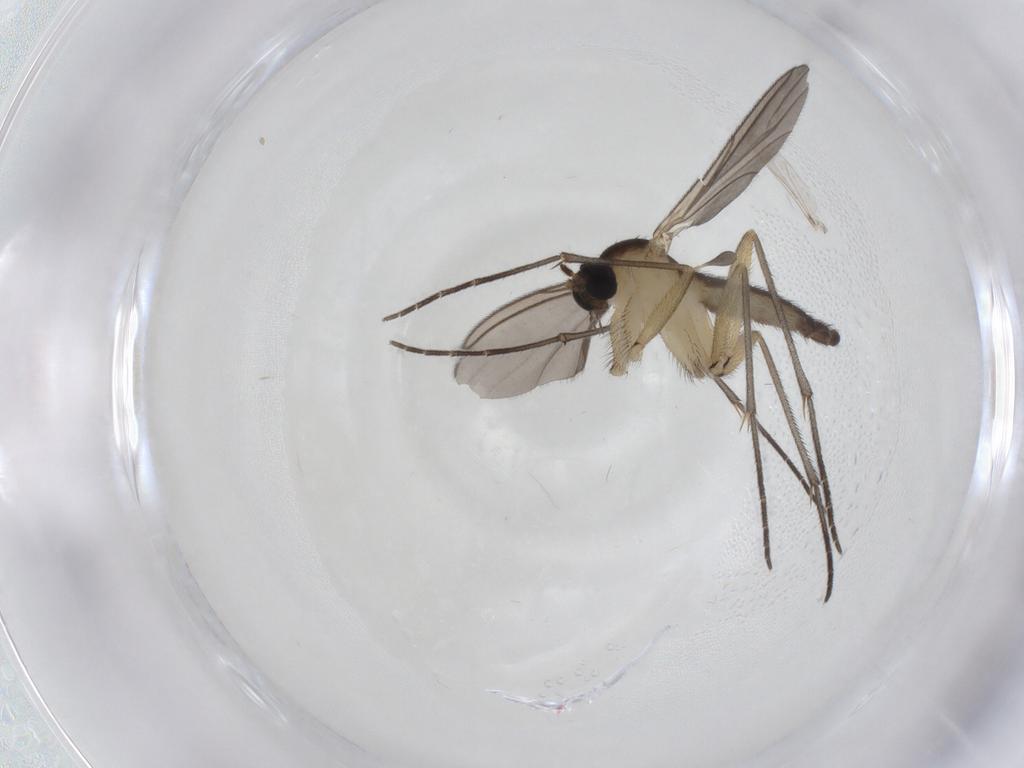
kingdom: Animalia
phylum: Arthropoda
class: Insecta
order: Diptera
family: Sciaridae
